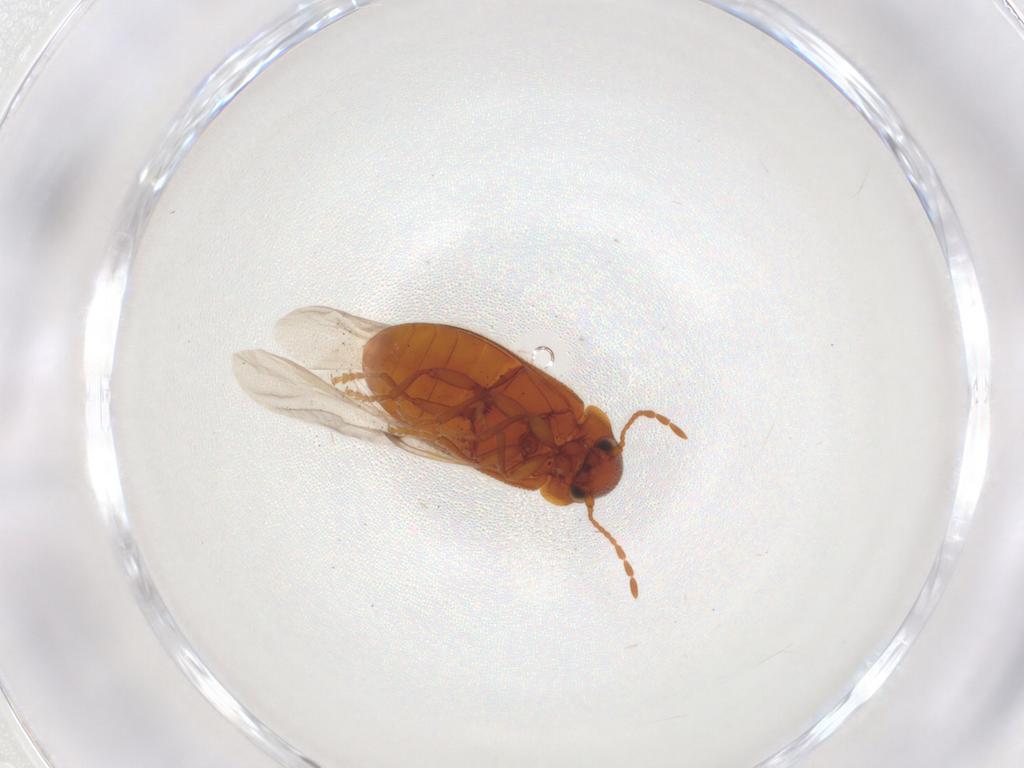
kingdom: Animalia
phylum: Arthropoda
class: Insecta
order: Coleoptera
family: Ptinidae
